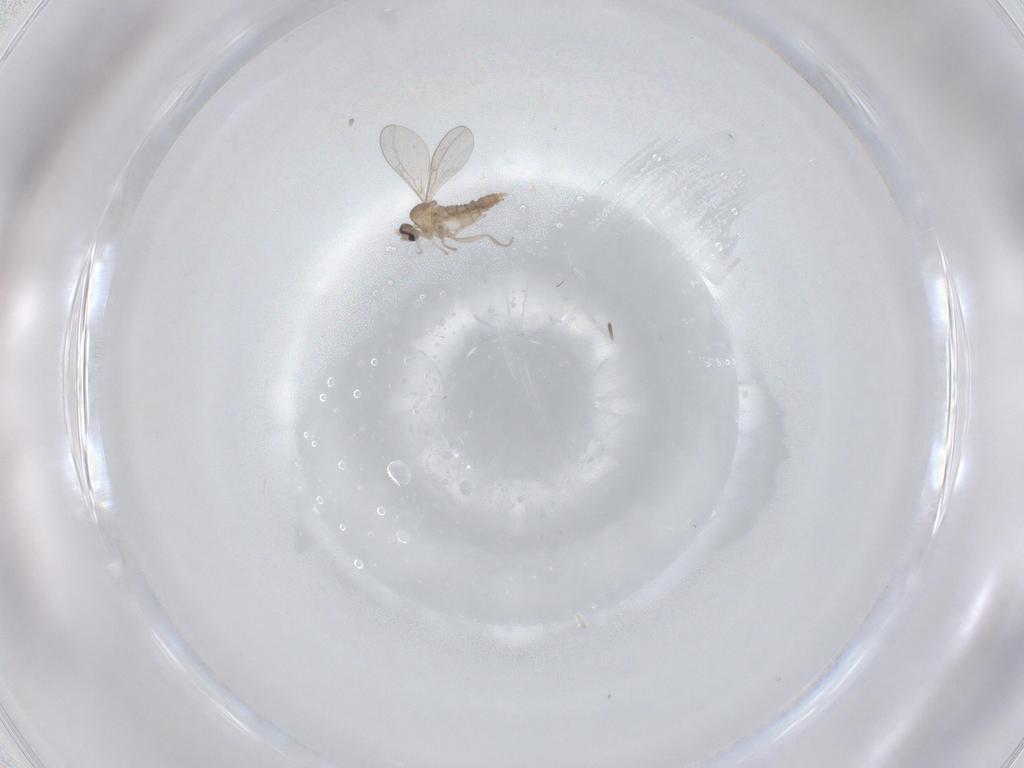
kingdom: Animalia
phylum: Arthropoda
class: Insecta
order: Diptera
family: Cecidomyiidae
